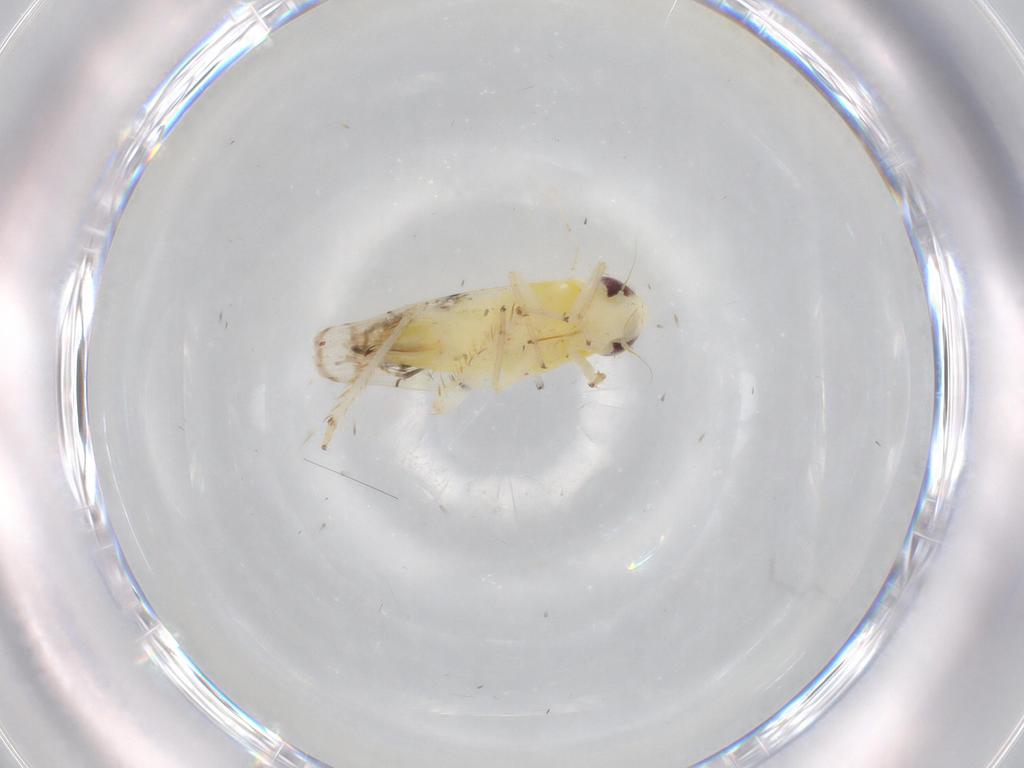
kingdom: Animalia
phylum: Arthropoda
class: Insecta
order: Hemiptera
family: Cicadellidae
